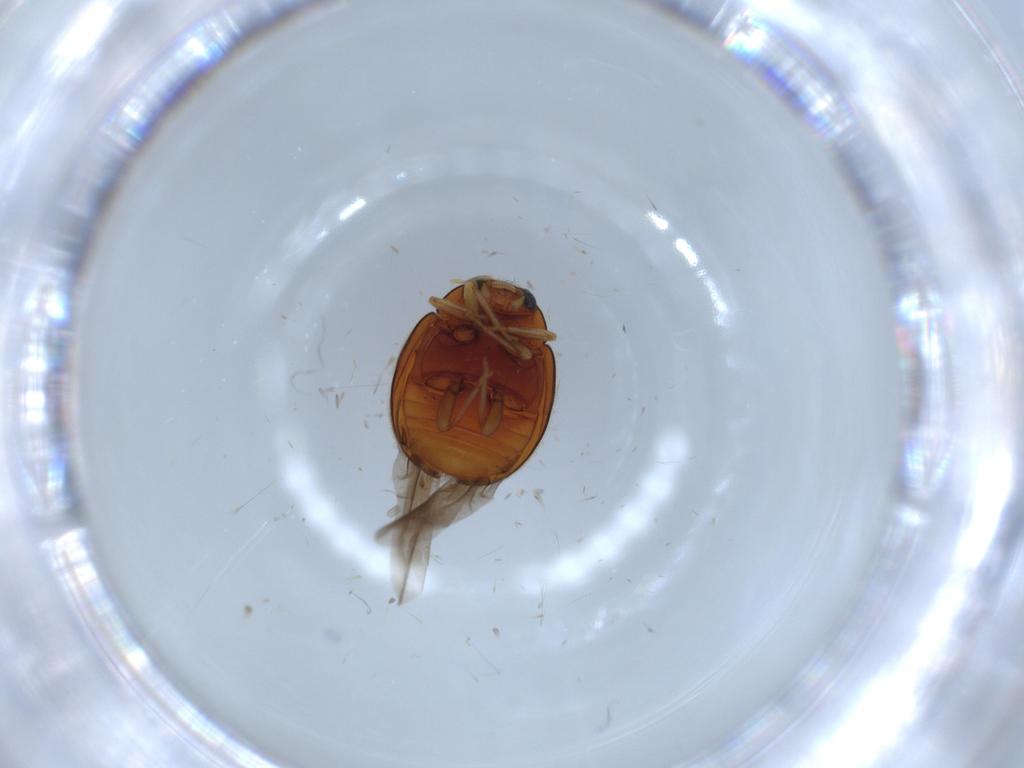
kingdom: Animalia
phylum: Arthropoda
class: Insecta
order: Coleoptera
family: Coccinellidae
